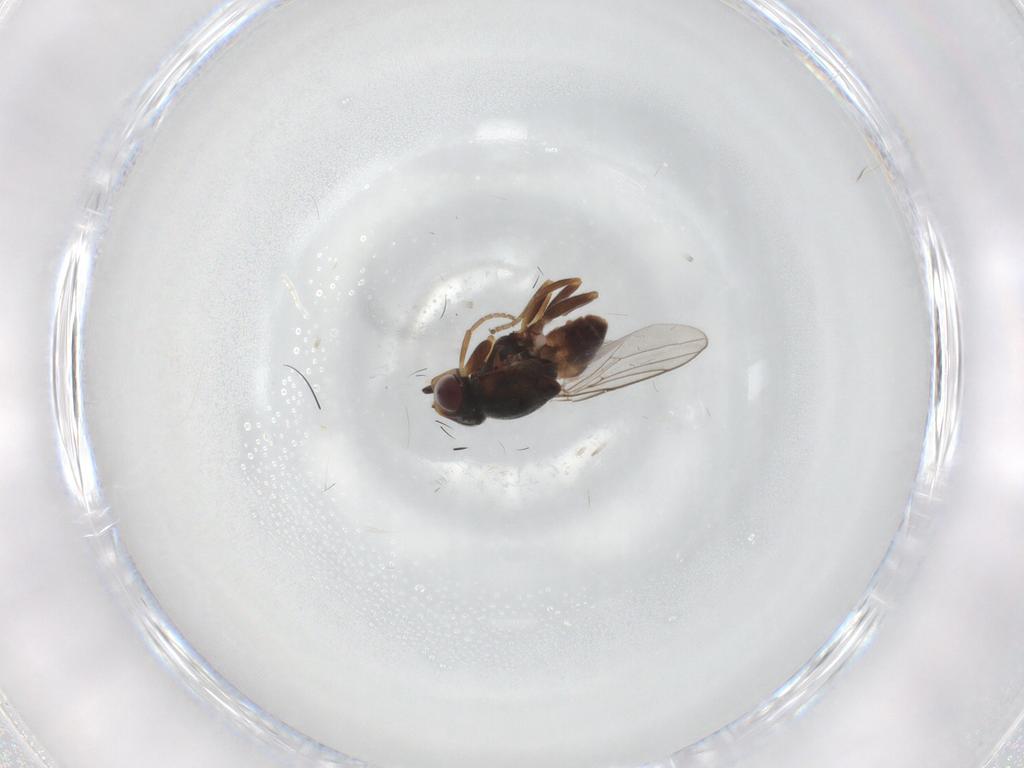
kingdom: Animalia
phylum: Arthropoda
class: Insecta
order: Diptera
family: Chloropidae
